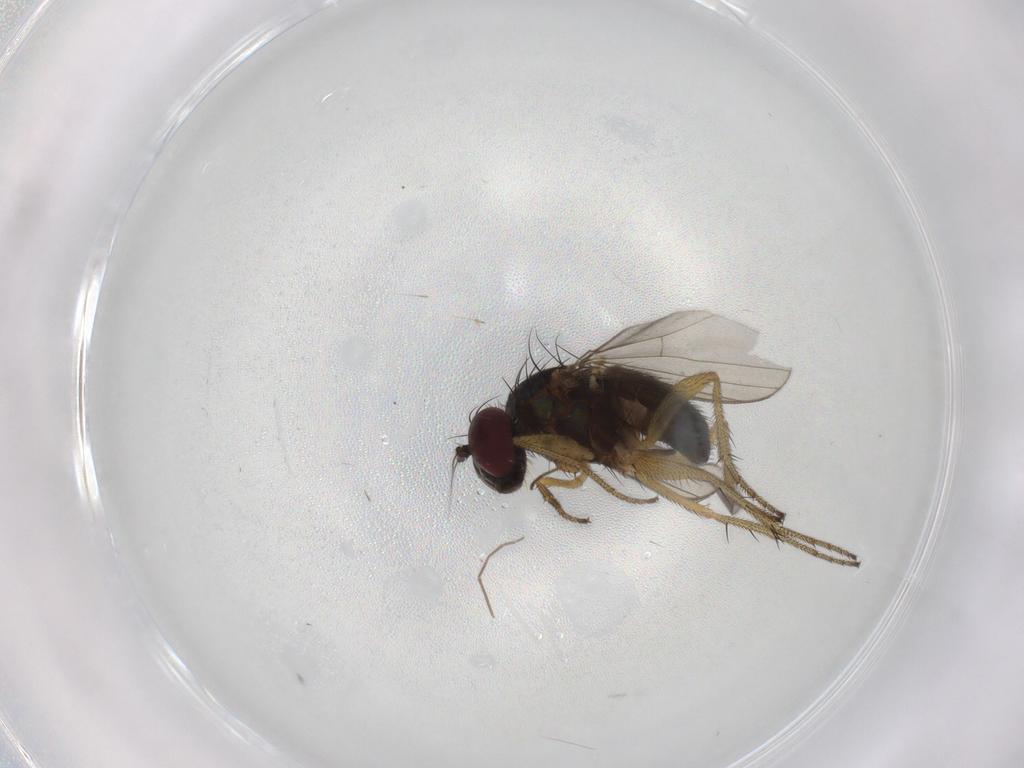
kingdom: Animalia
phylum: Arthropoda
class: Insecta
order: Diptera
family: Chironomidae
